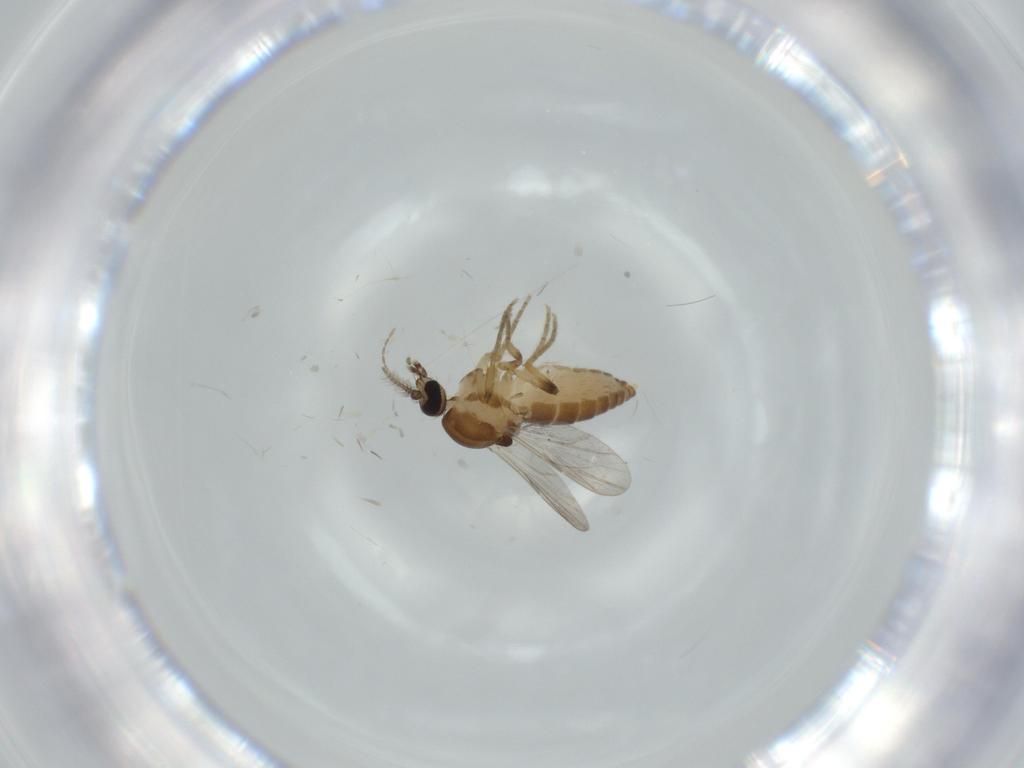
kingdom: Animalia
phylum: Arthropoda
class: Insecta
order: Diptera
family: Ceratopogonidae
